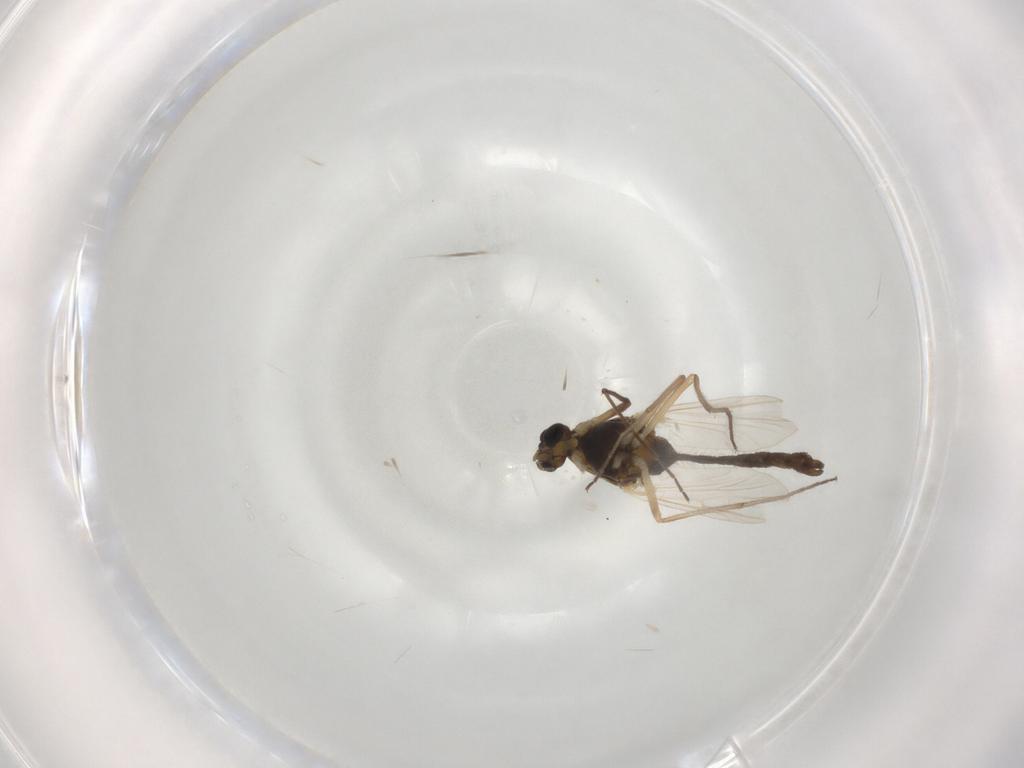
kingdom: Animalia
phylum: Arthropoda
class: Insecta
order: Diptera
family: Chironomidae
